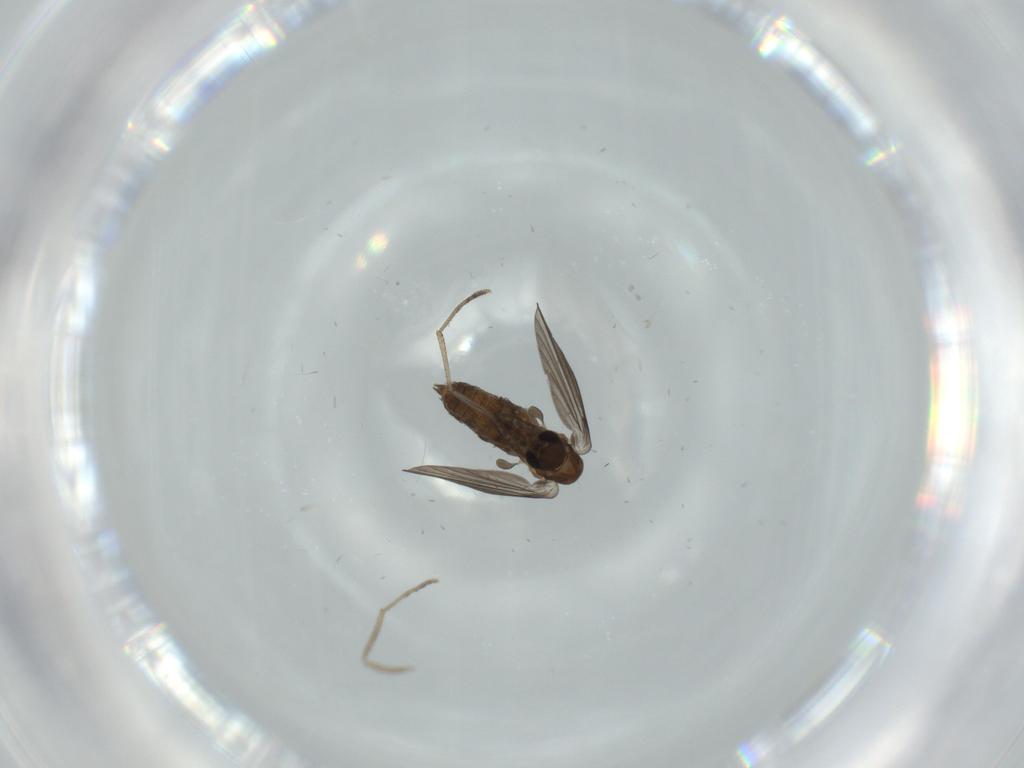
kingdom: Animalia
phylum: Arthropoda
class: Insecta
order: Diptera
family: Psychodidae
